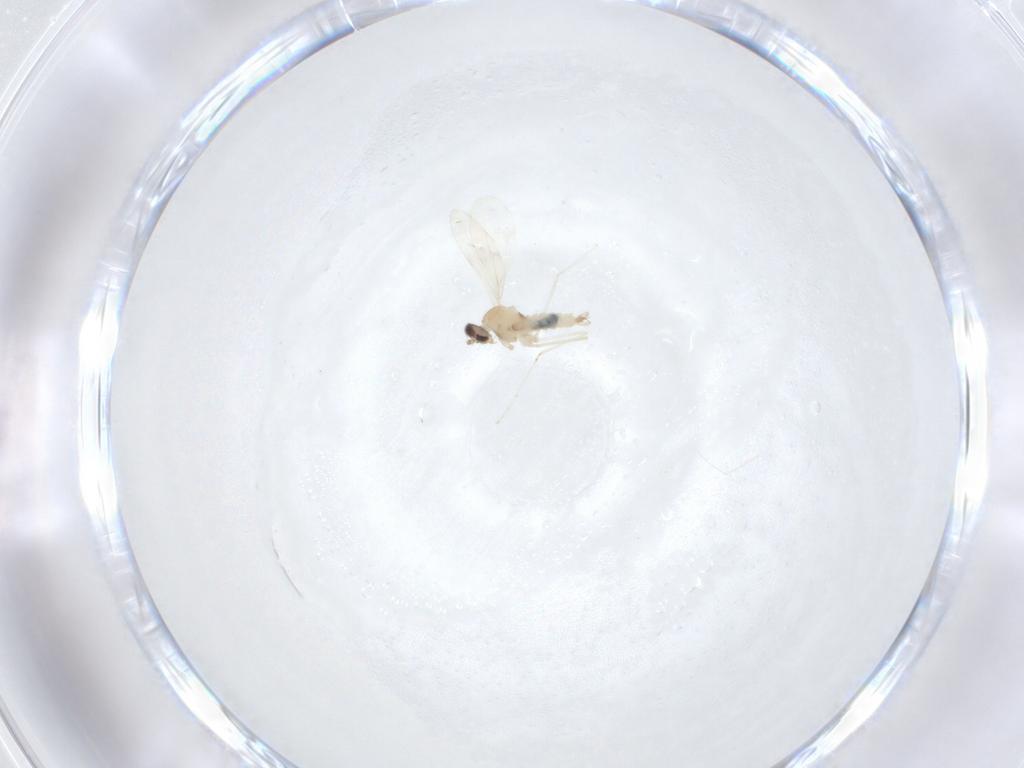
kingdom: Animalia
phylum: Arthropoda
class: Insecta
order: Diptera
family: Cecidomyiidae
